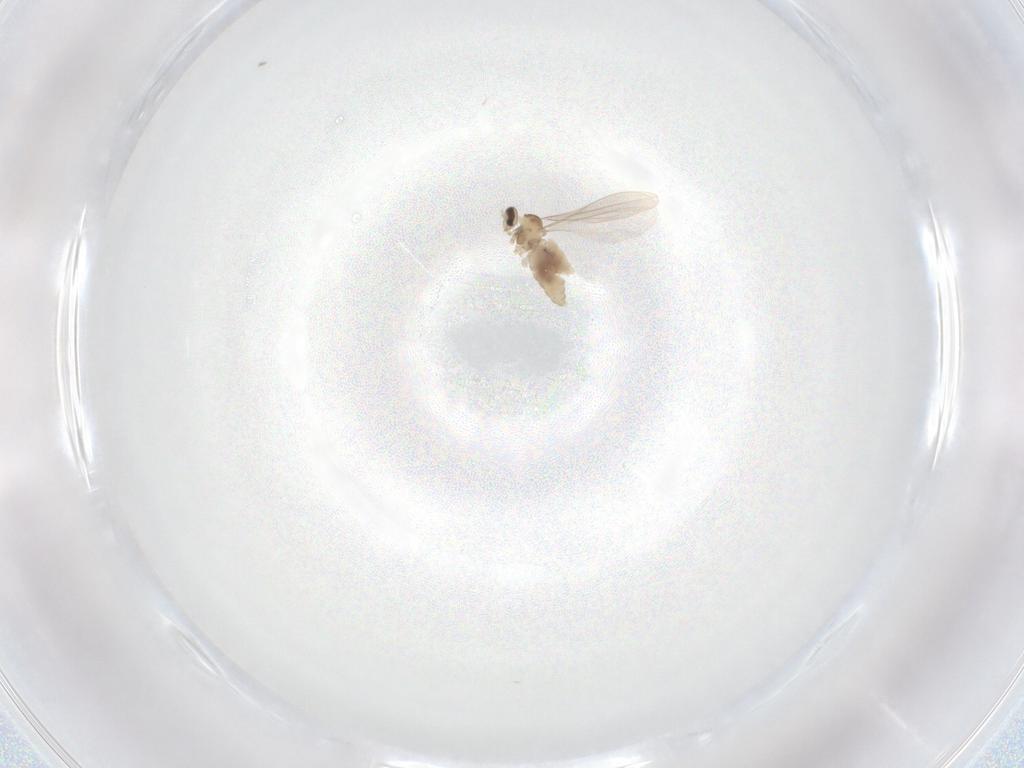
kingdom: Animalia
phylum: Arthropoda
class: Insecta
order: Diptera
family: Cecidomyiidae
